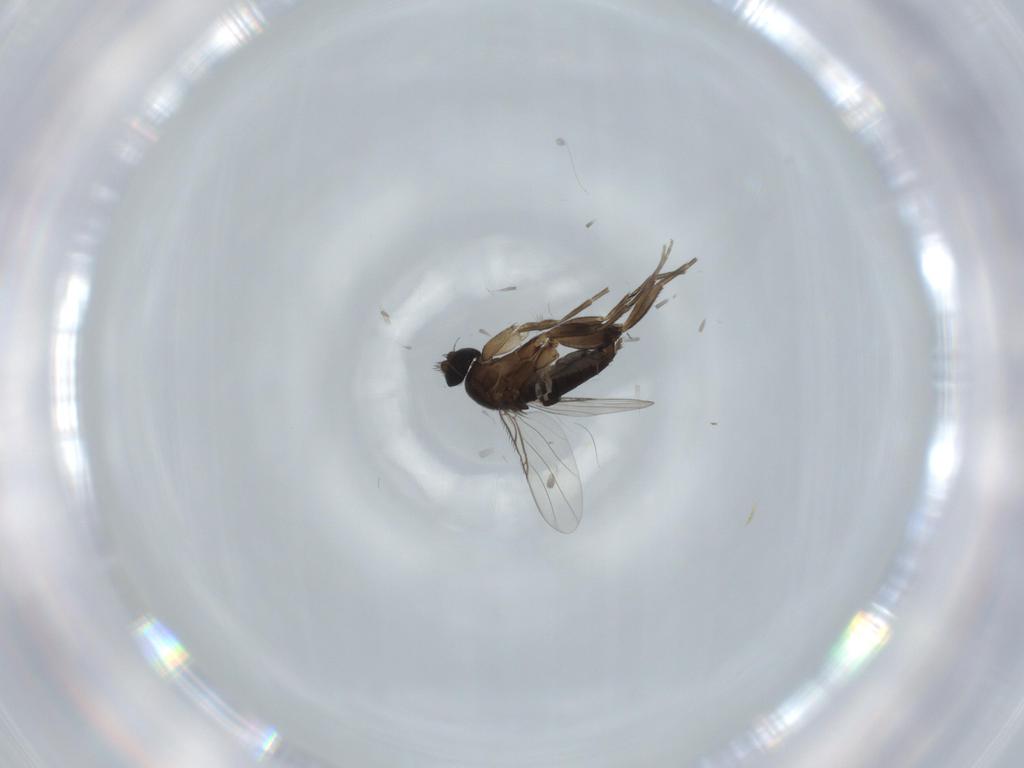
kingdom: Animalia
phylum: Arthropoda
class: Insecta
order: Diptera
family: Phoridae
